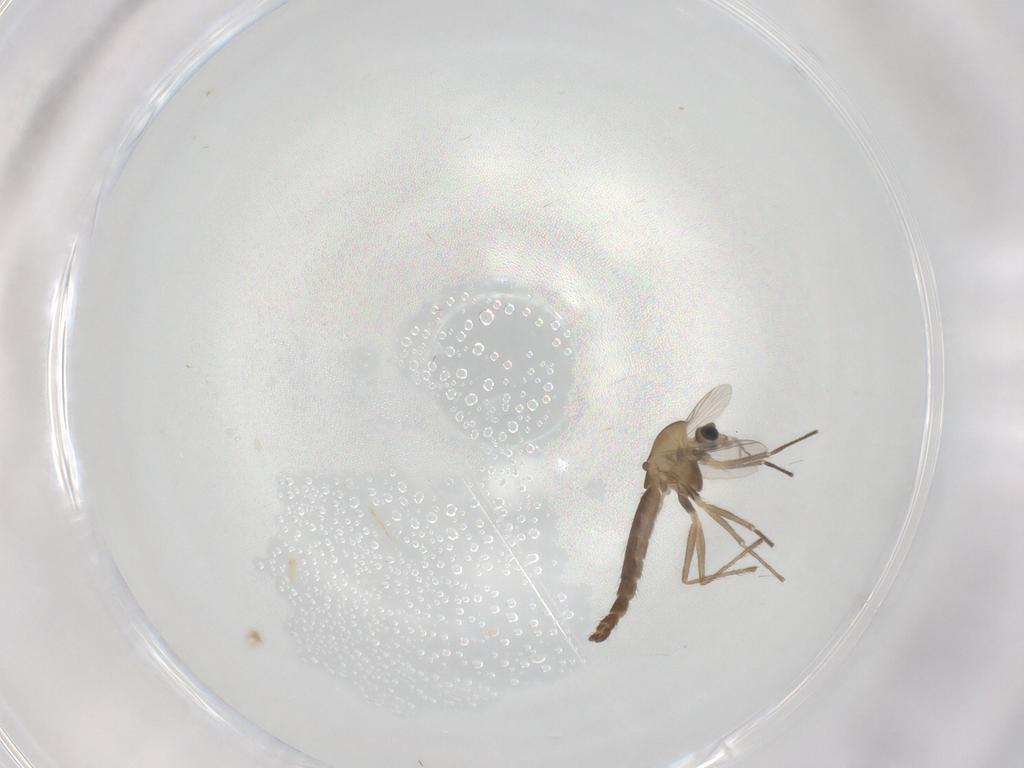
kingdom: Animalia
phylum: Arthropoda
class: Insecta
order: Diptera
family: Chironomidae
